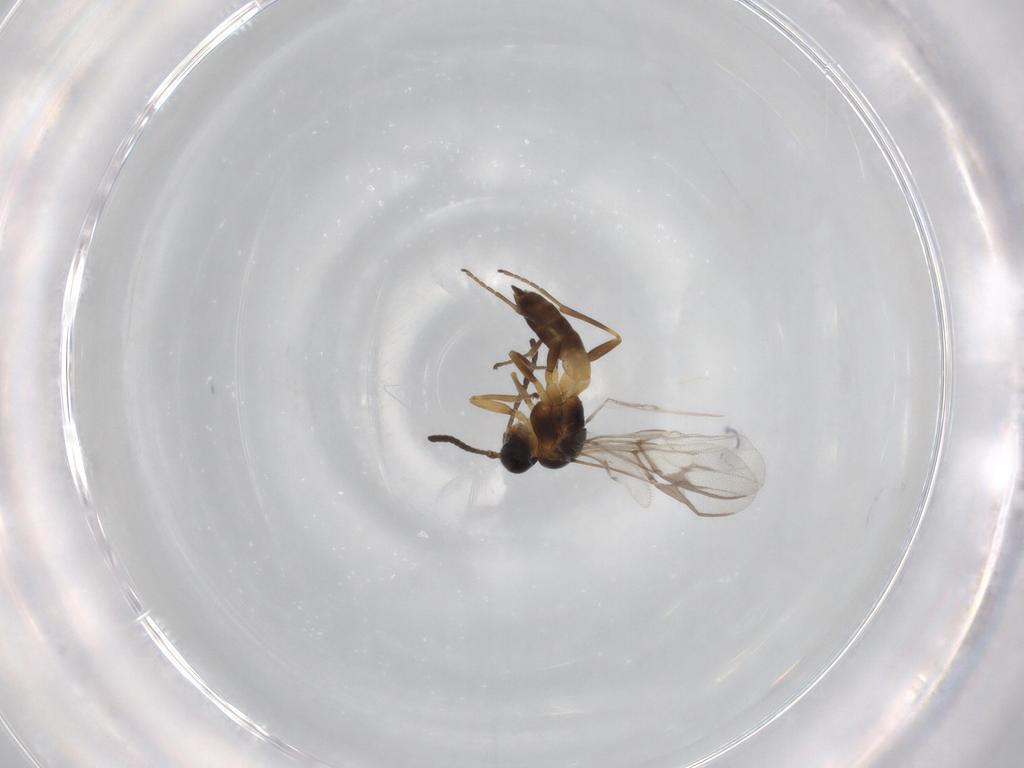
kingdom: Animalia
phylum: Arthropoda
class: Insecta
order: Hymenoptera
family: Braconidae
